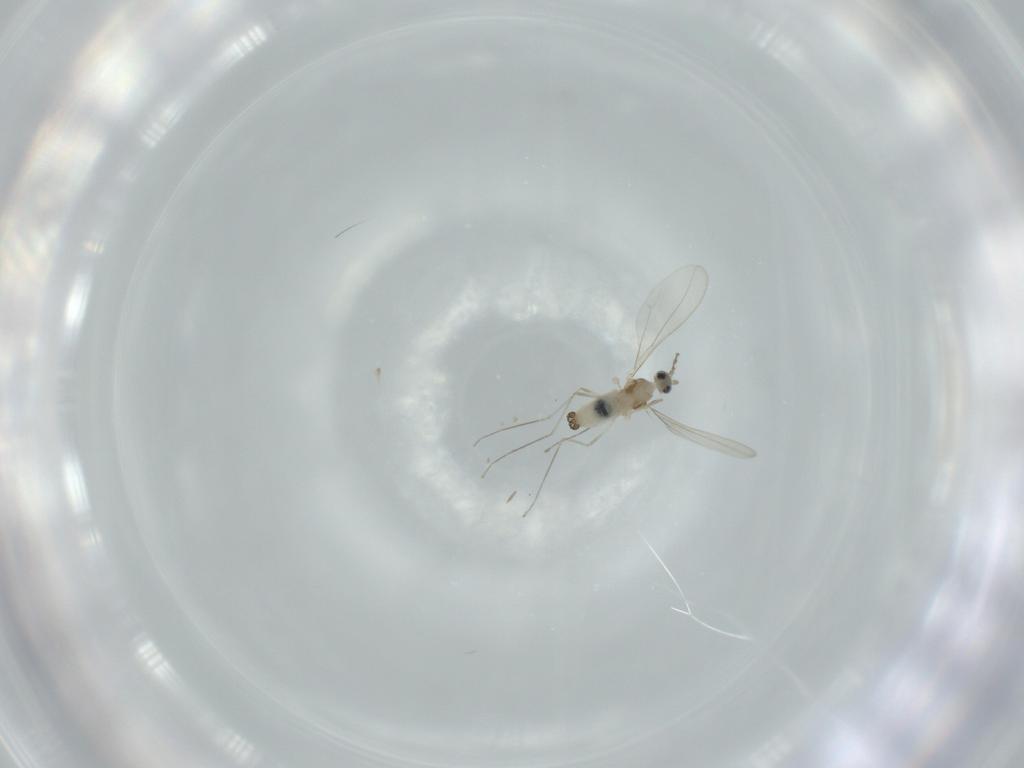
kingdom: Animalia
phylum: Arthropoda
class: Insecta
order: Diptera
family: Cecidomyiidae
